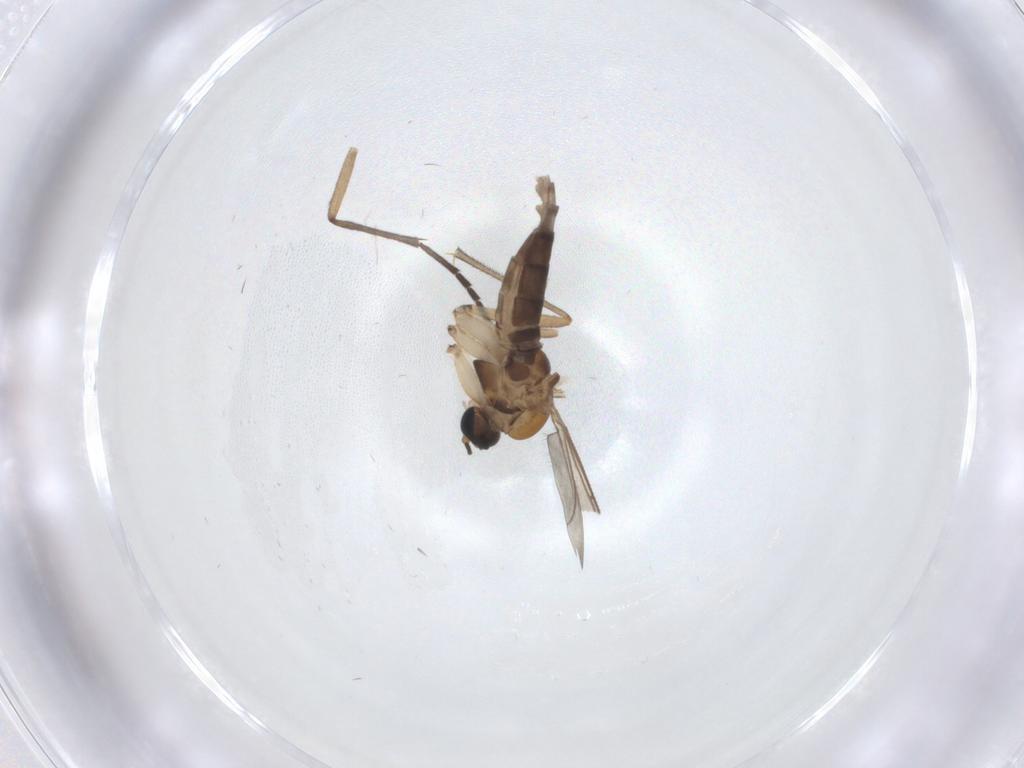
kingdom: Animalia
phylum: Arthropoda
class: Insecta
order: Diptera
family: Sciaridae
